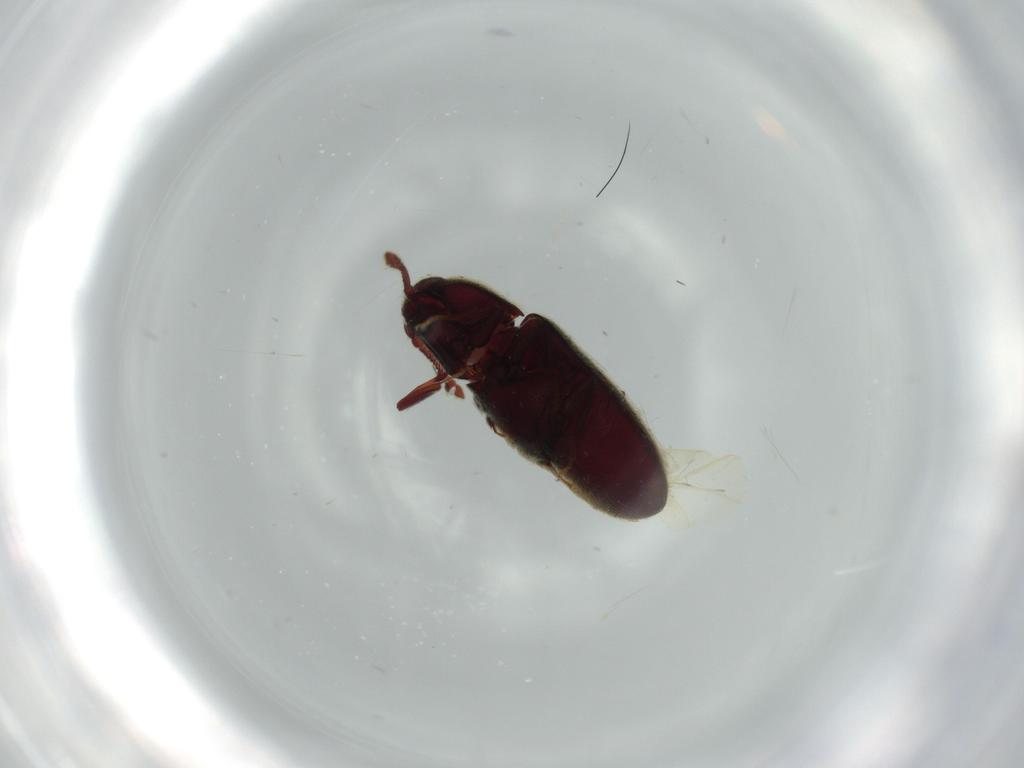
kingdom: Animalia
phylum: Arthropoda
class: Insecta
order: Coleoptera
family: Throscidae
